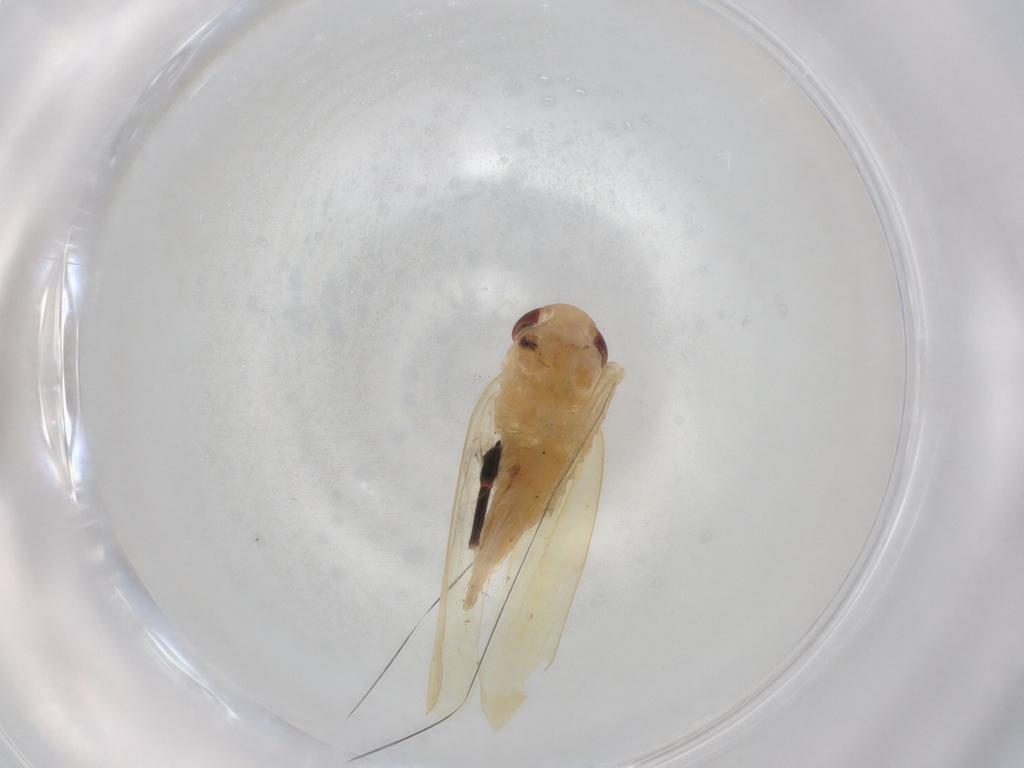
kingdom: Animalia
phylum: Arthropoda
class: Insecta
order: Hemiptera
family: Cicadellidae
